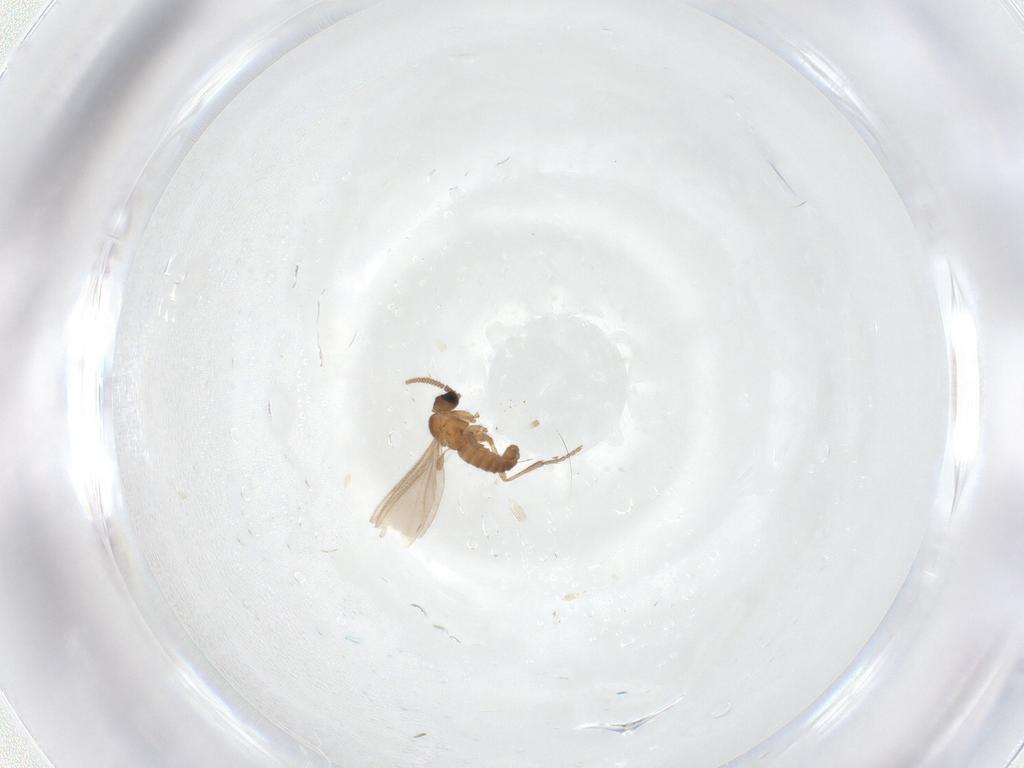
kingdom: Animalia
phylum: Arthropoda
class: Insecta
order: Diptera
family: Sciaridae
